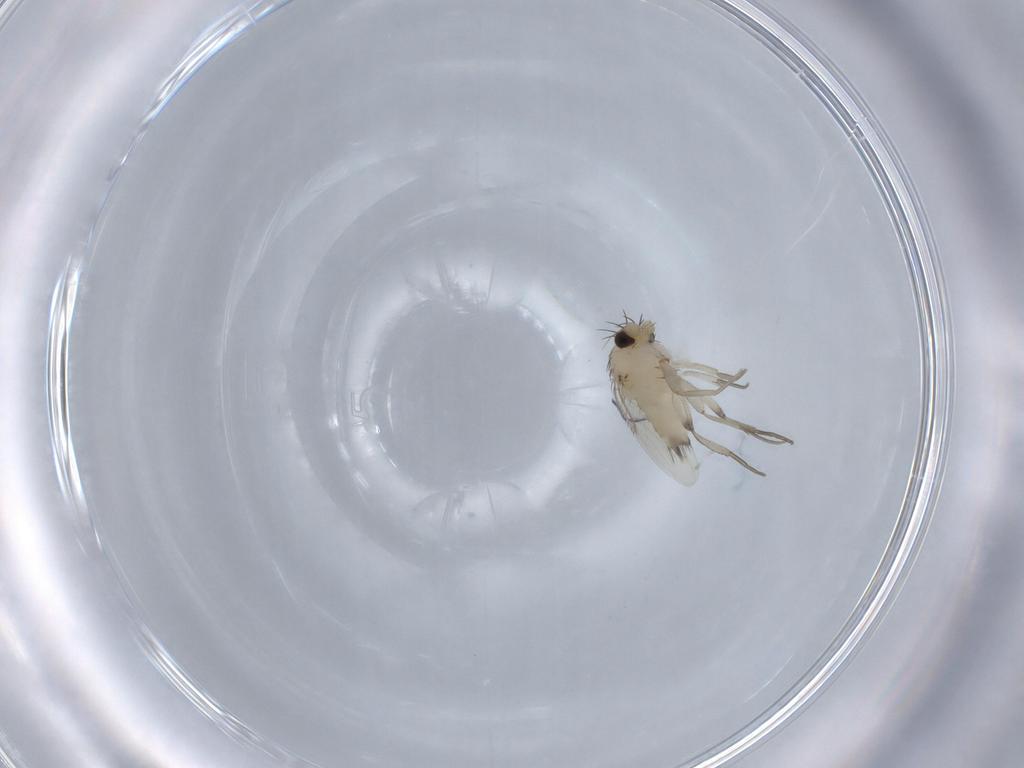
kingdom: Animalia
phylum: Arthropoda
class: Insecta
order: Diptera
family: Phoridae
